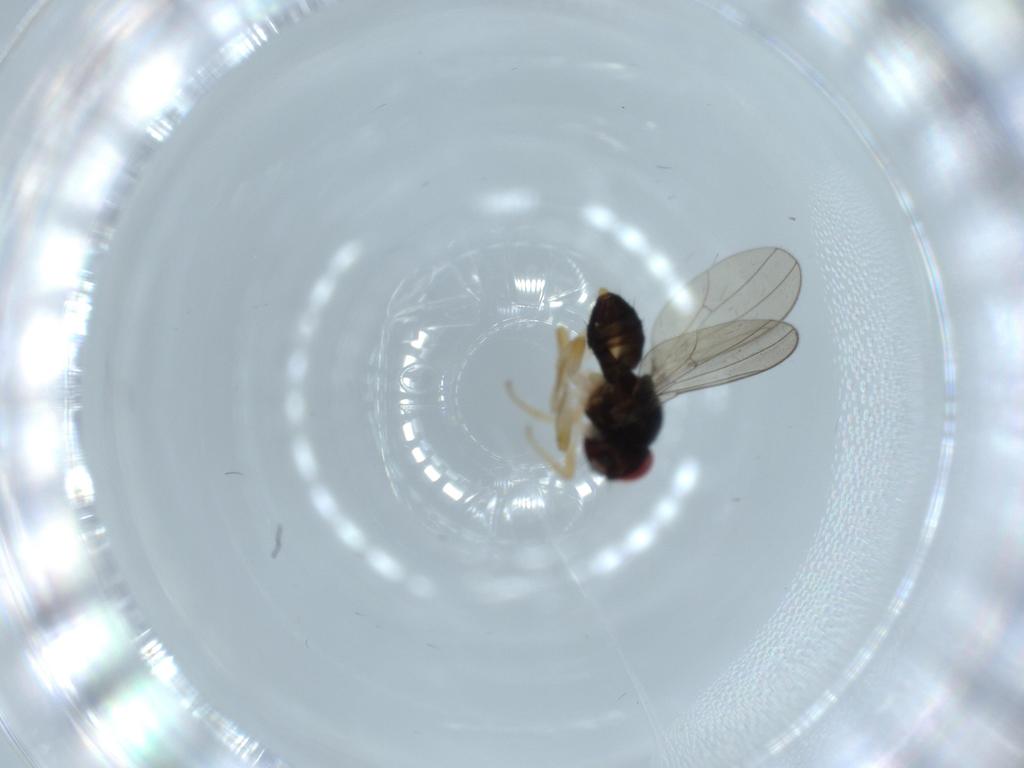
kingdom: Animalia
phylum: Arthropoda
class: Insecta
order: Diptera
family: Drosophilidae
